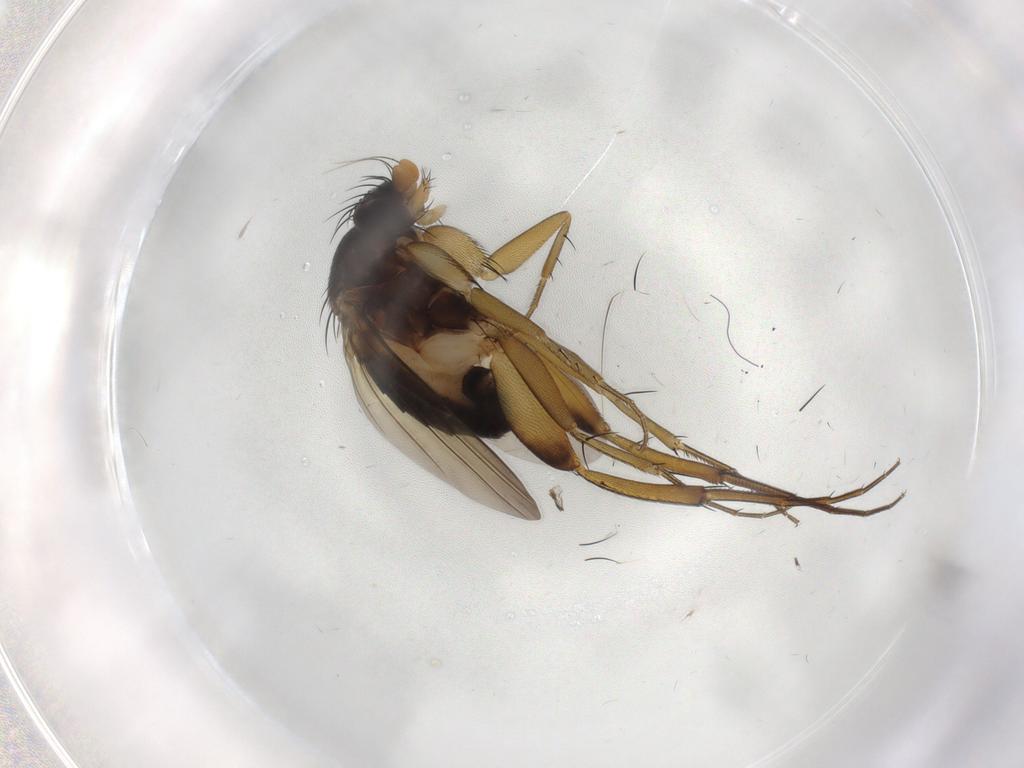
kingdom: Animalia
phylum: Arthropoda
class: Insecta
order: Diptera
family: Phoridae
